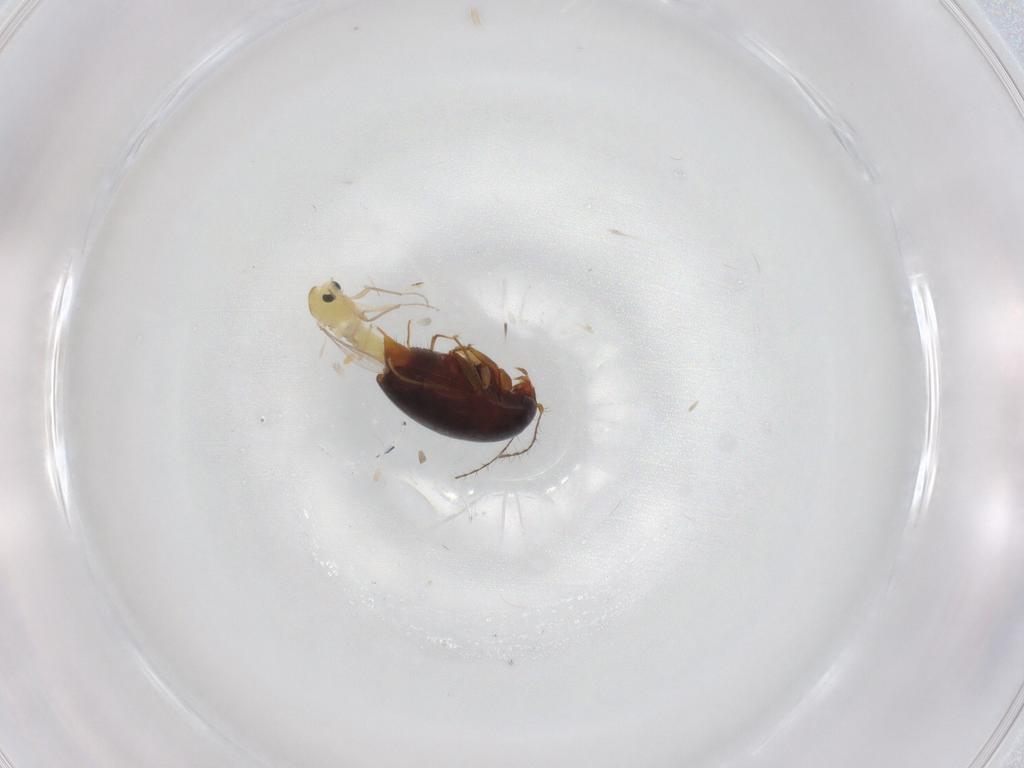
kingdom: Animalia
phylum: Arthropoda
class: Insecta
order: Coleoptera
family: Staphylinidae
